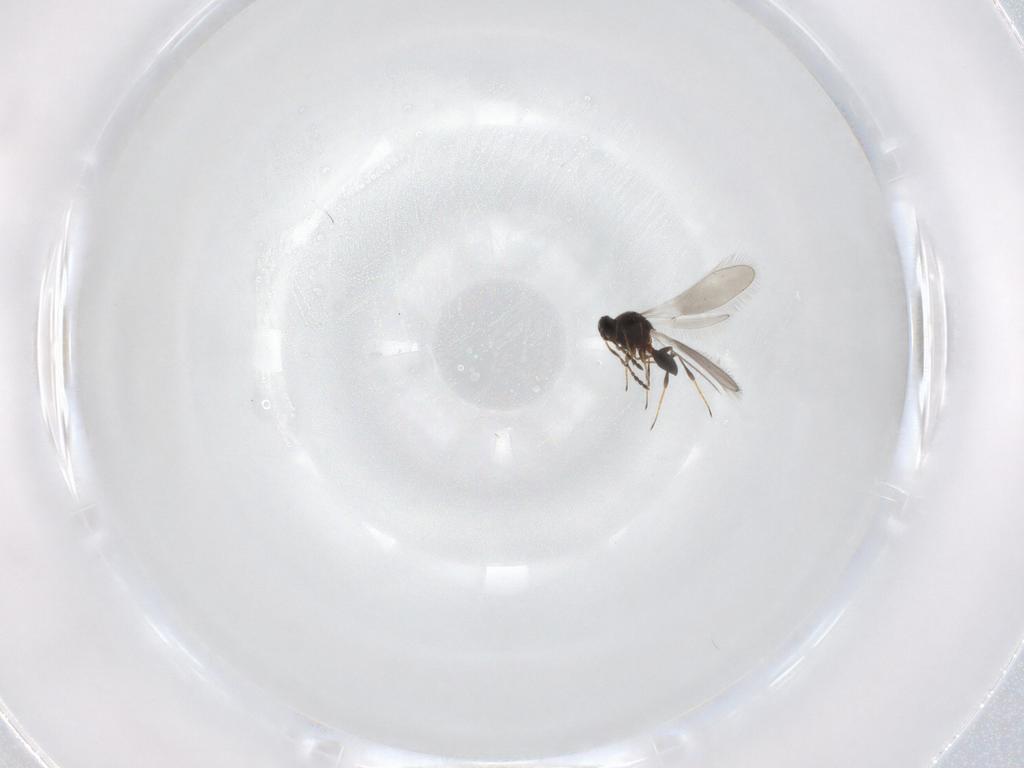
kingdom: Animalia
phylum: Arthropoda
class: Insecta
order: Hymenoptera
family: Platygastridae
